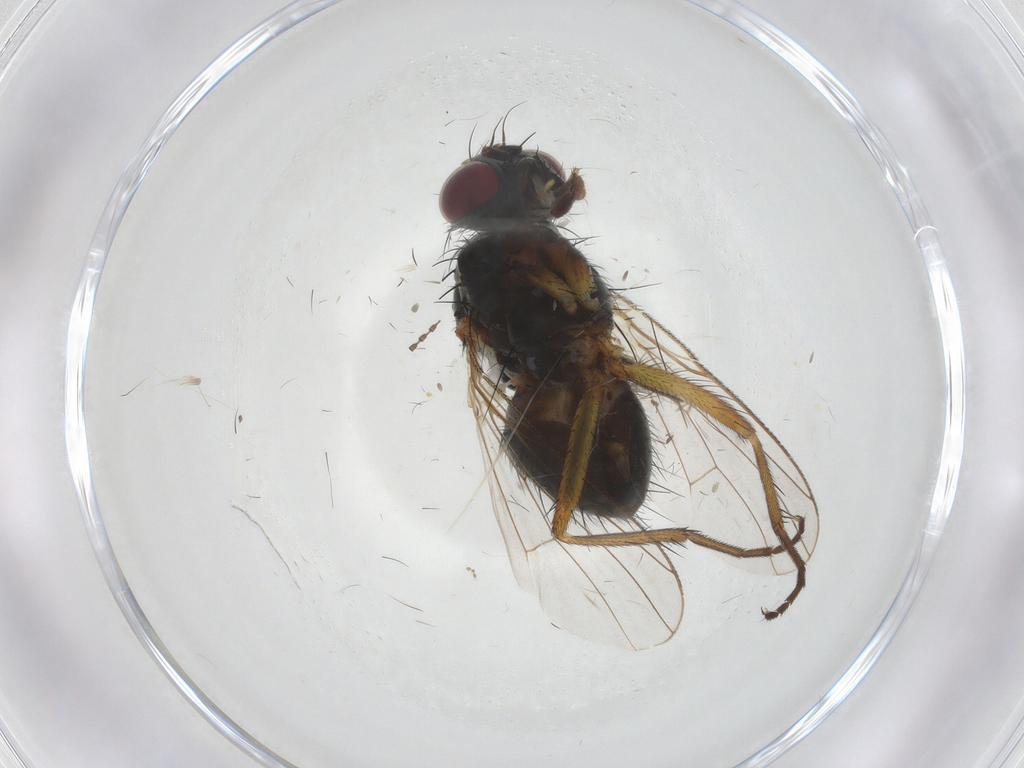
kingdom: Animalia
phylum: Arthropoda
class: Insecta
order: Diptera
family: Muscidae
